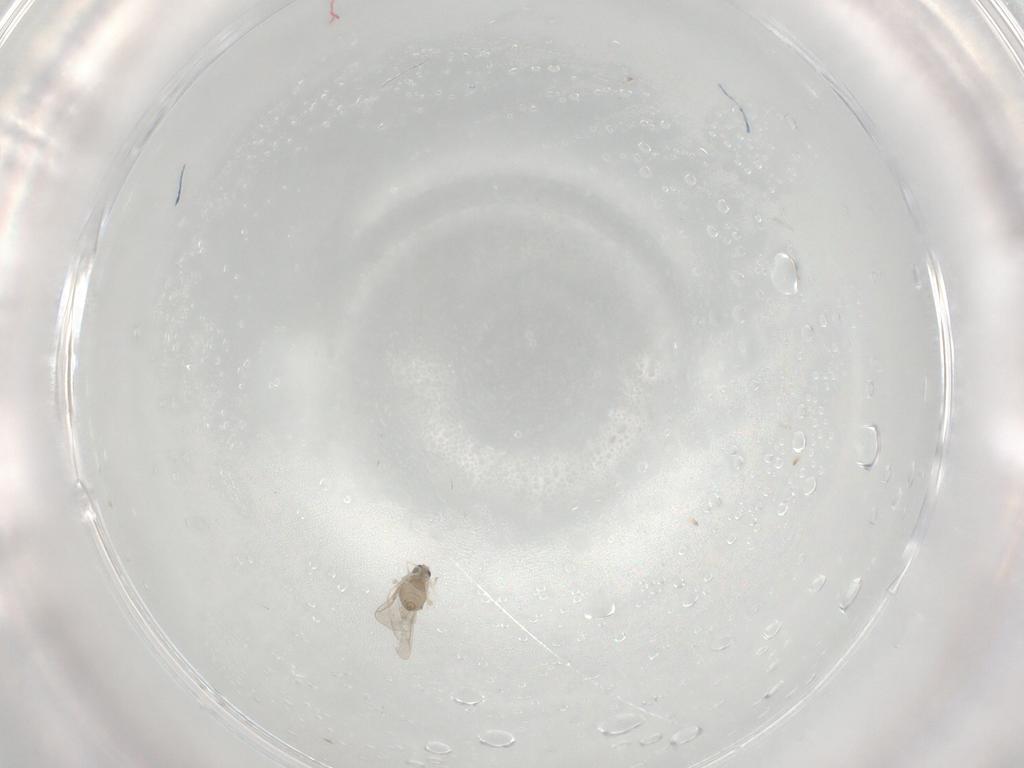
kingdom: Animalia
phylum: Arthropoda
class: Insecta
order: Diptera
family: Cecidomyiidae
